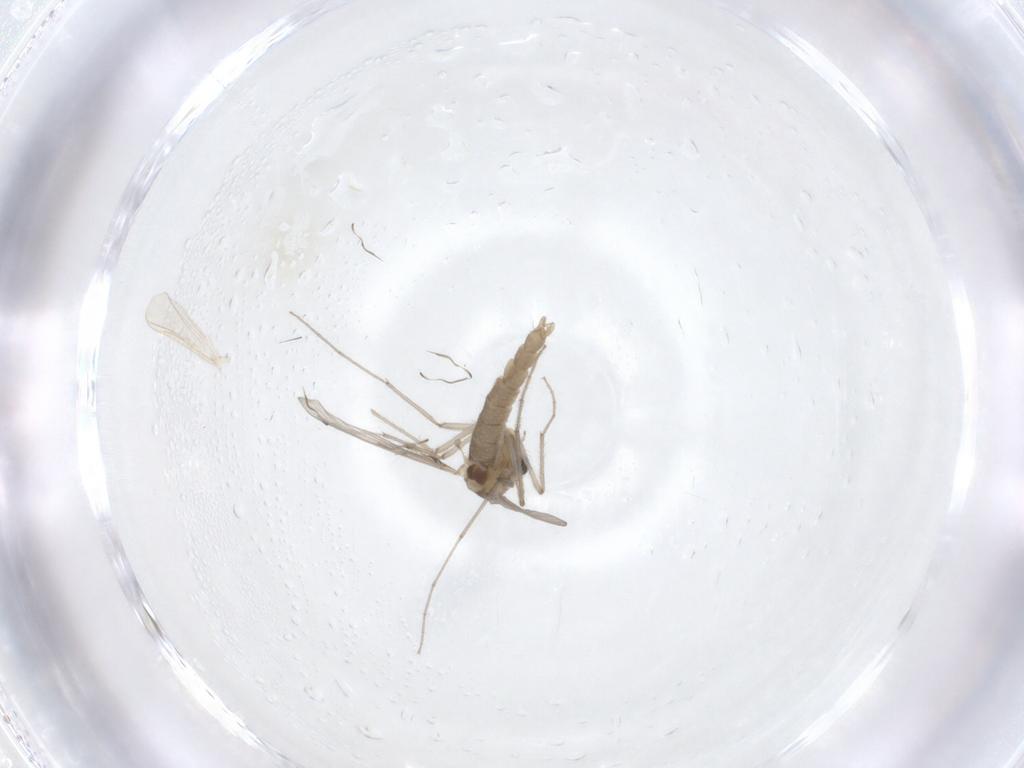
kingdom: Animalia
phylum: Arthropoda
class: Insecta
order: Diptera
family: Chironomidae
